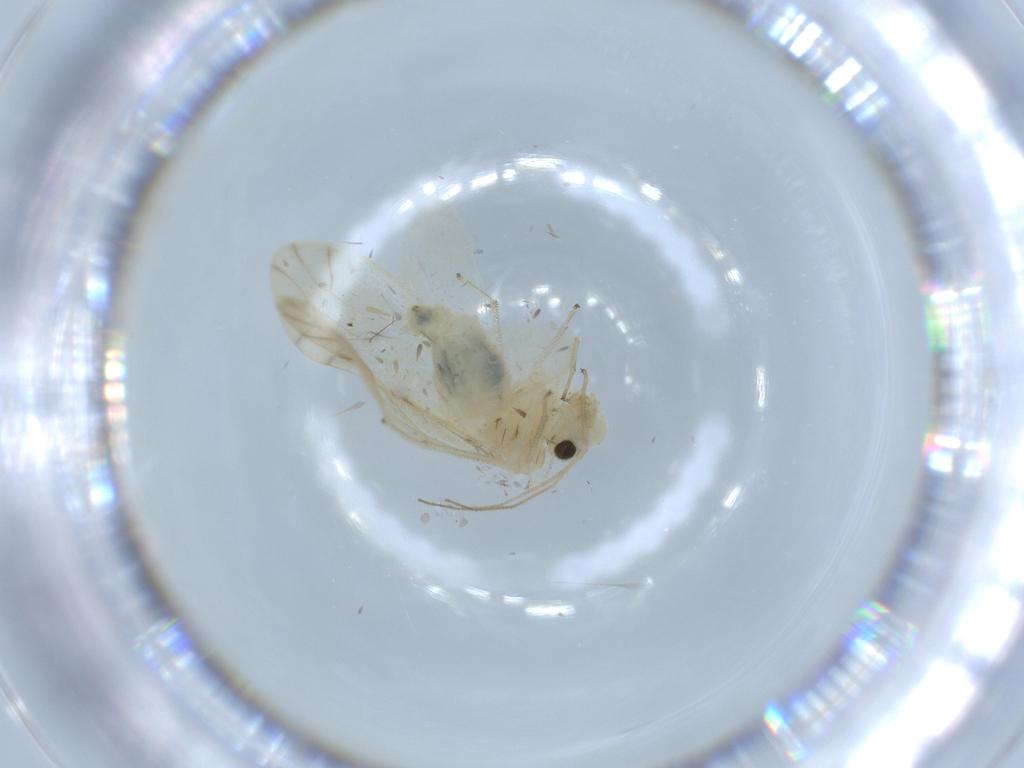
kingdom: Animalia
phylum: Arthropoda
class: Insecta
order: Psocodea
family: Caeciliusidae
